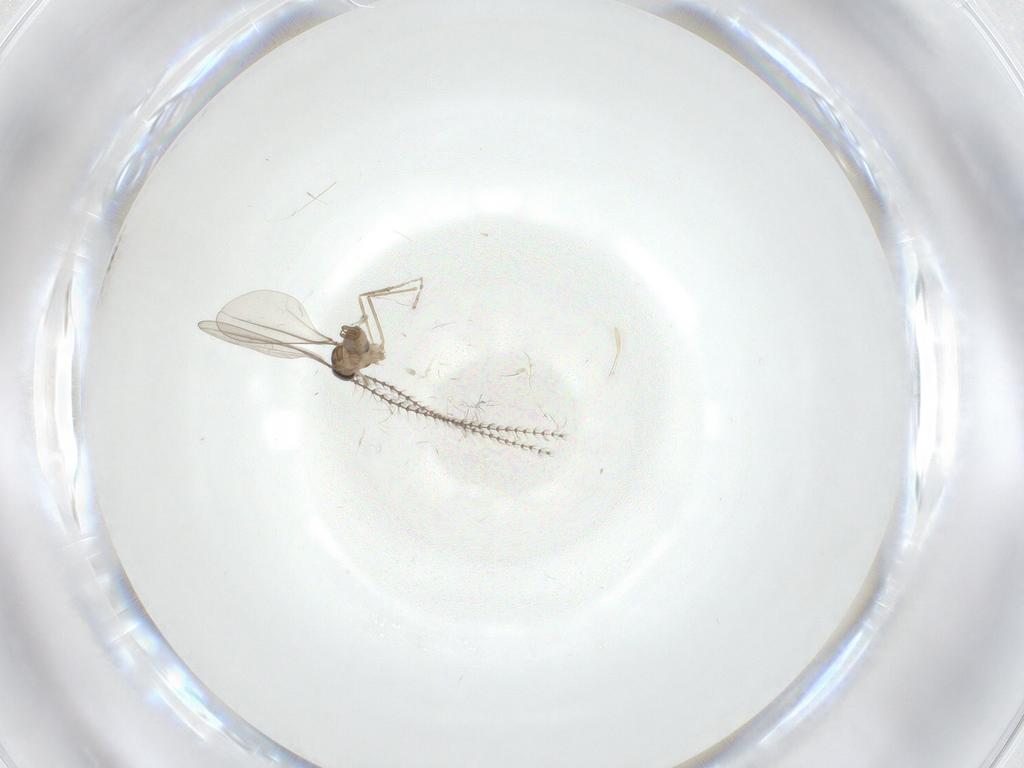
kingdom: Animalia
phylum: Arthropoda
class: Insecta
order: Diptera
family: Cecidomyiidae
